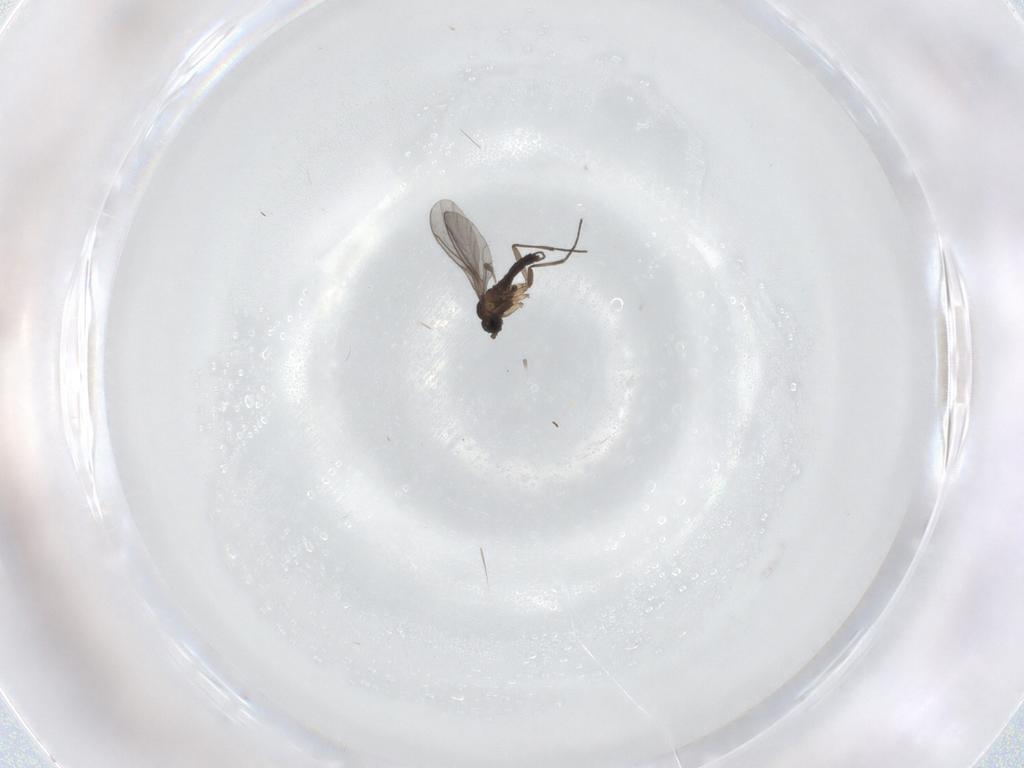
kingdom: Animalia
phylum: Arthropoda
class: Insecta
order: Diptera
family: Sciaridae
